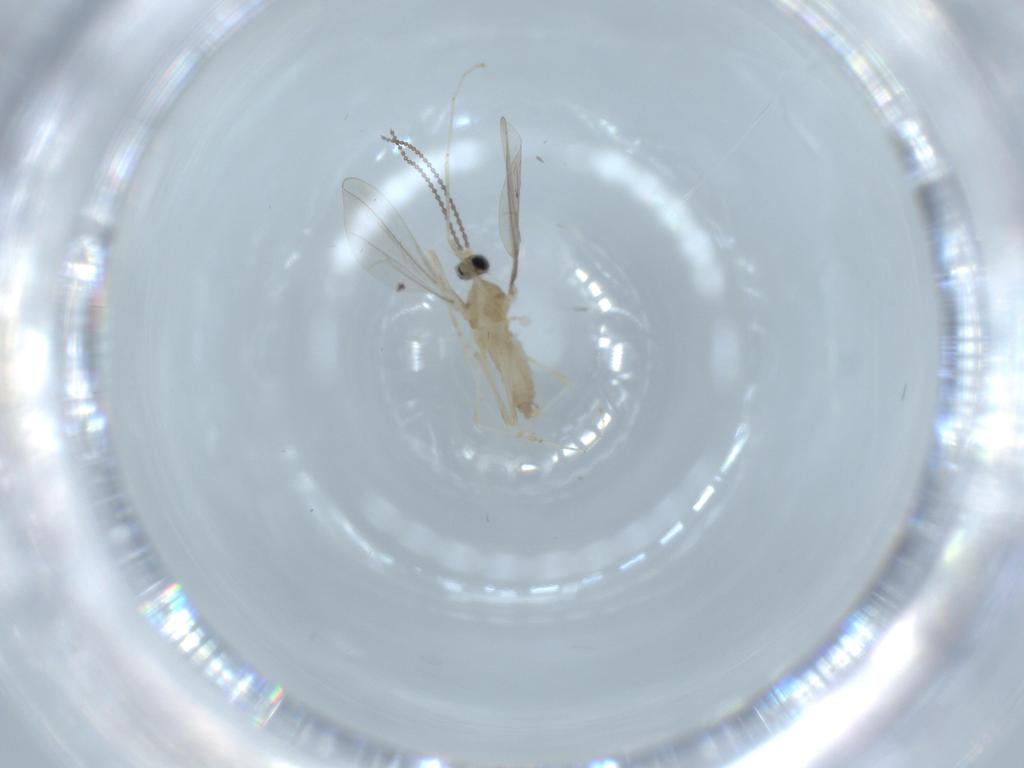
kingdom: Animalia
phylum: Arthropoda
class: Insecta
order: Diptera
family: Cecidomyiidae
